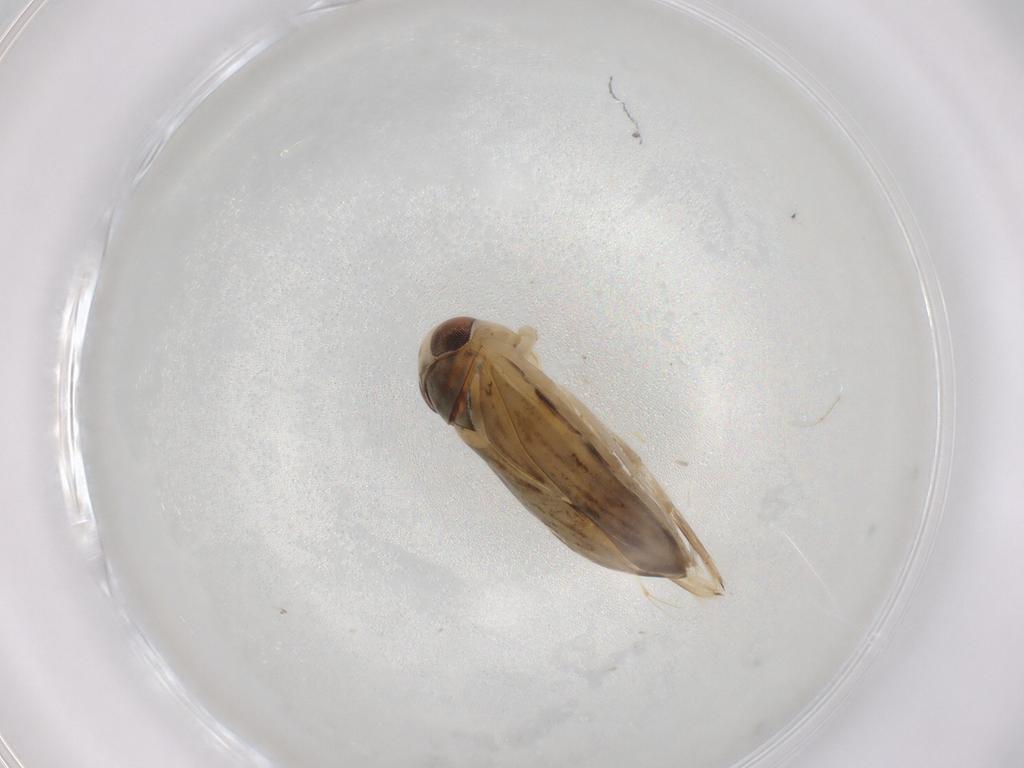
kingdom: Animalia
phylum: Arthropoda
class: Insecta
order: Hemiptera
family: Corixidae
